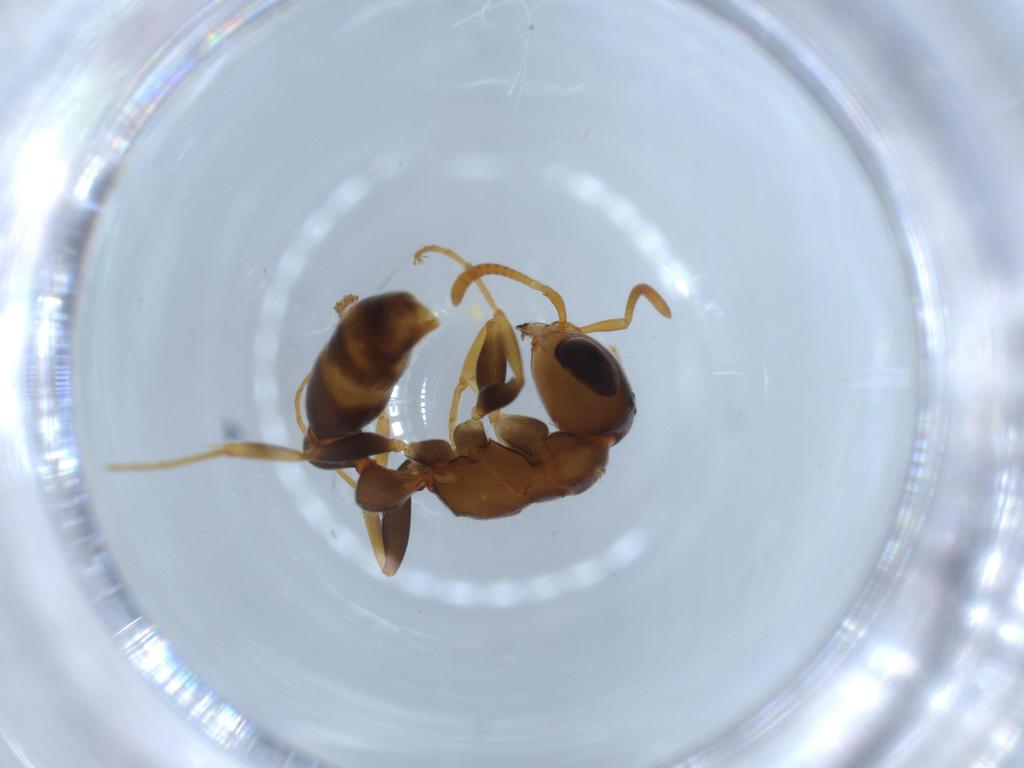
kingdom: Animalia
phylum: Arthropoda
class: Insecta
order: Hymenoptera
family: Formicidae
